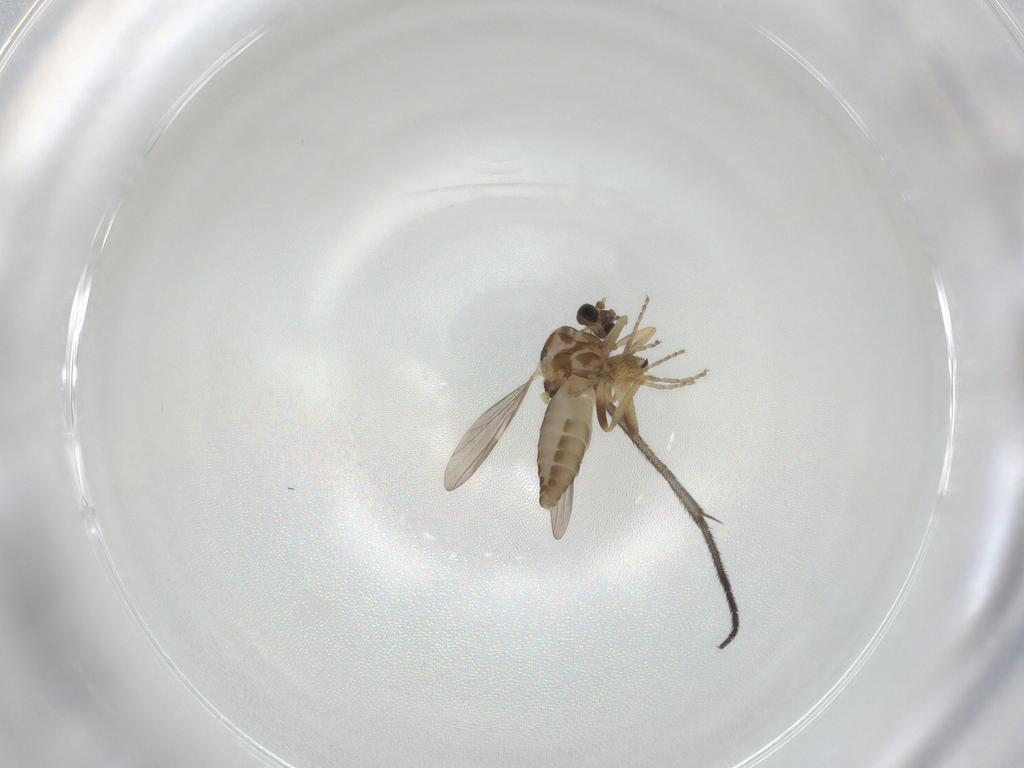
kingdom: Animalia
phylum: Arthropoda
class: Insecta
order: Diptera
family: Ceratopogonidae
